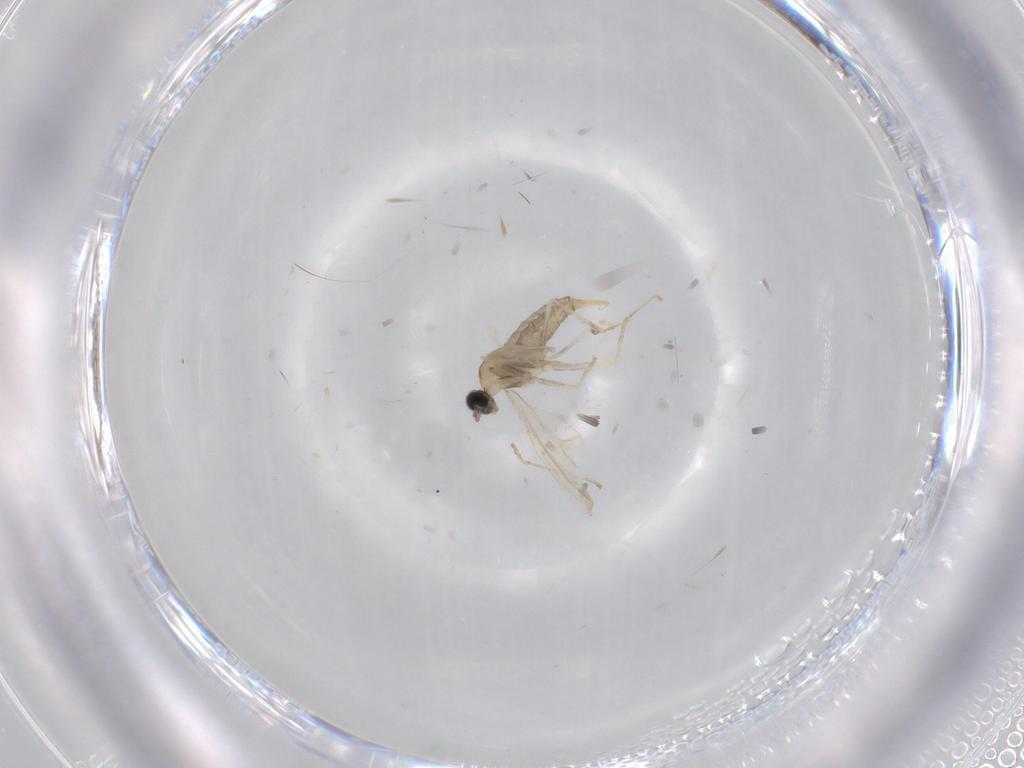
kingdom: Animalia
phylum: Arthropoda
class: Insecta
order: Diptera
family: Cecidomyiidae
